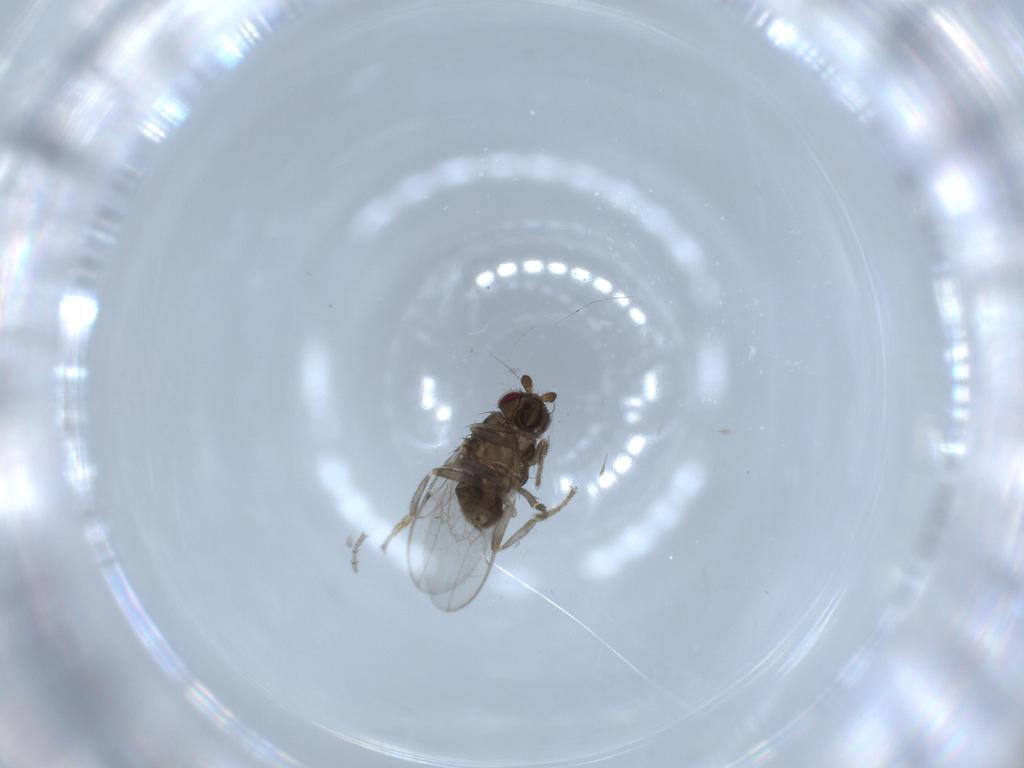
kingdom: Animalia
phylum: Arthropoda
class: Insecta
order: Diptera
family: Sphaeroceridae
